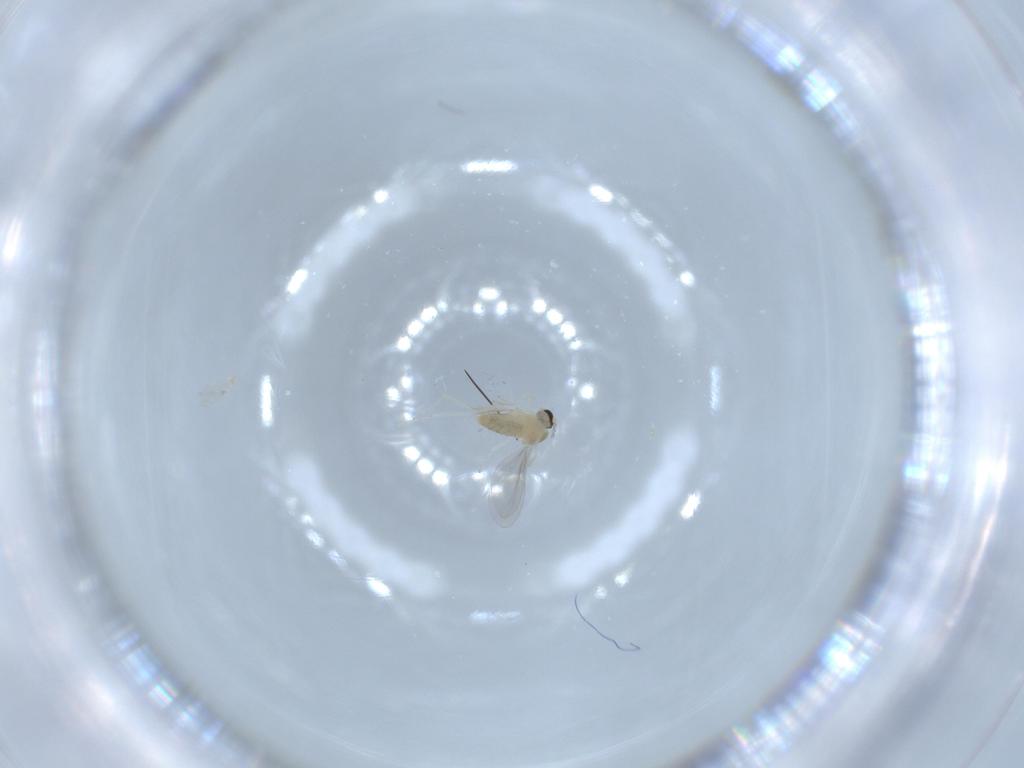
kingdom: Animalia
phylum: Arthropoda
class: Insecta
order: Diptera
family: Cecidomyiidae
